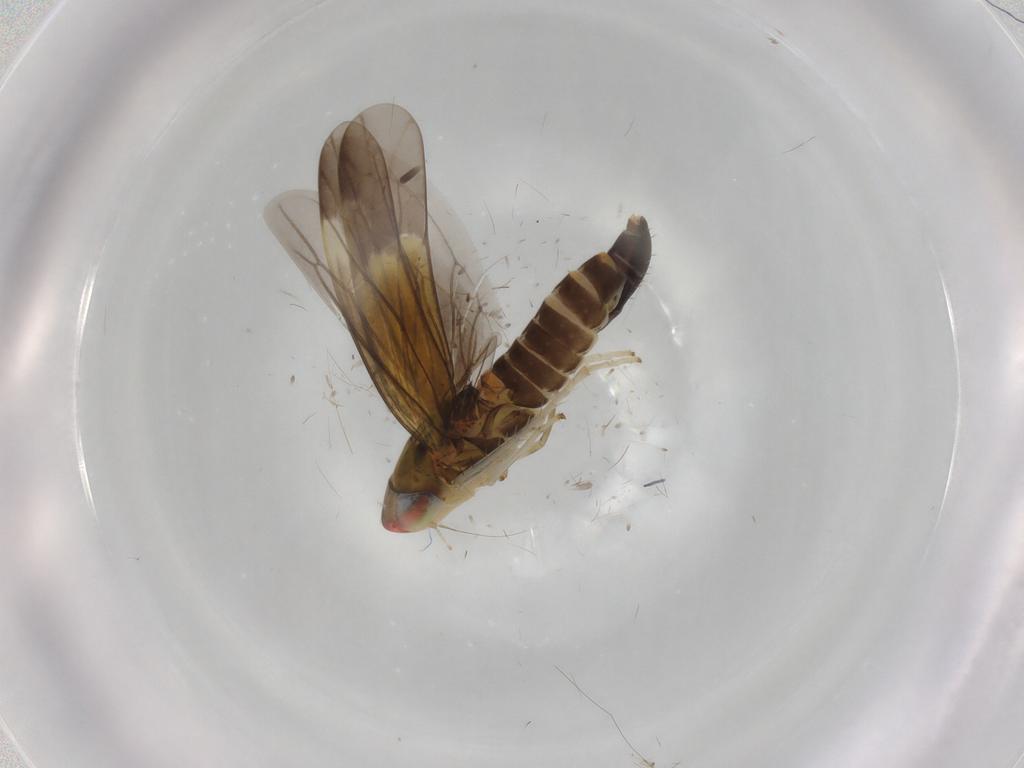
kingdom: Animalia
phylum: Arthropoda
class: Insecta
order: Hemiptera
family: Cicadellidae
